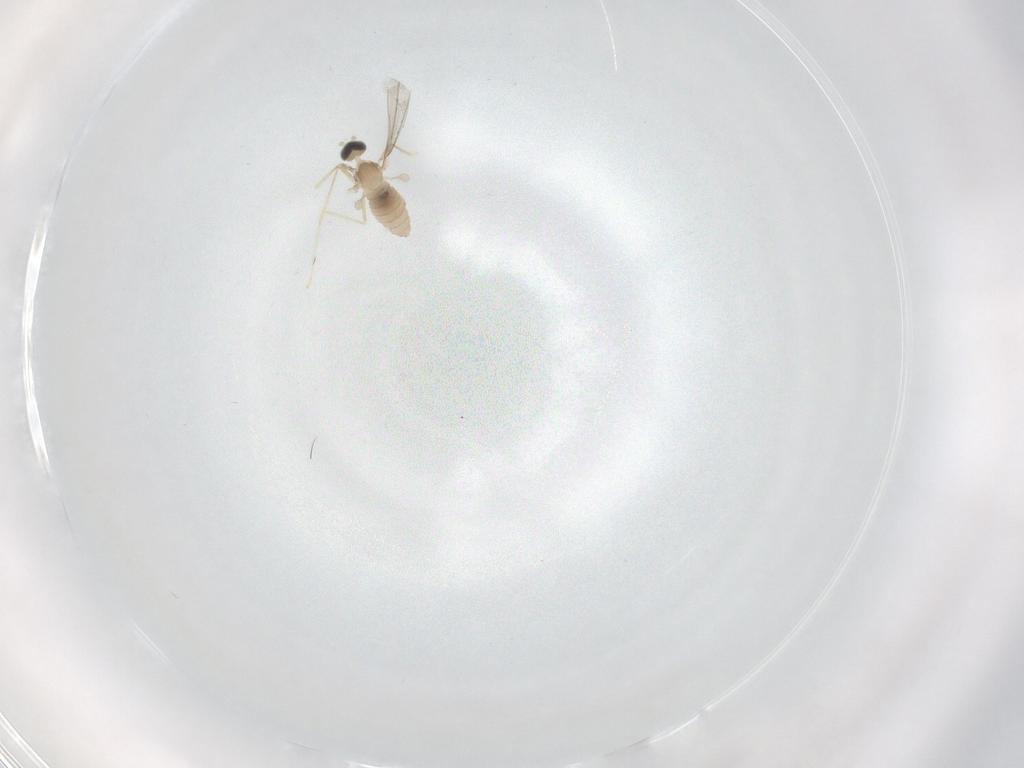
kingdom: Animalia
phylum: Arthropoda
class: Insecta
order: Diptera
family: Cecidomyiidae
